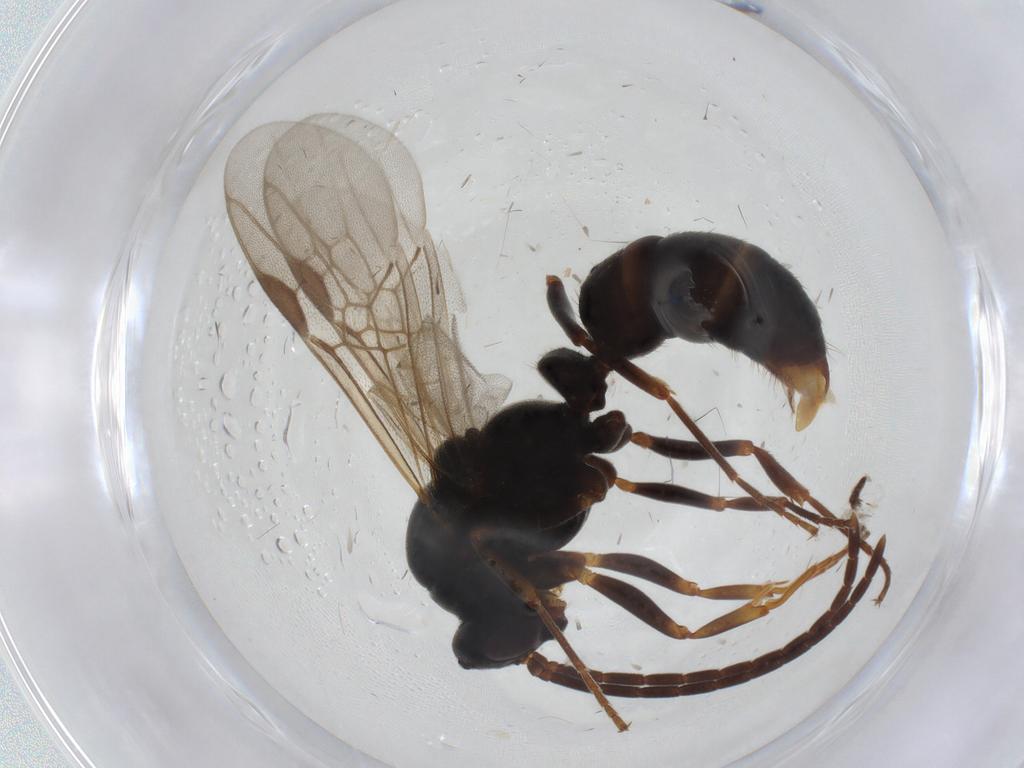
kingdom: Animalia
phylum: Arthropoda
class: Insecta
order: Hymenoptera
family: Formicidae
